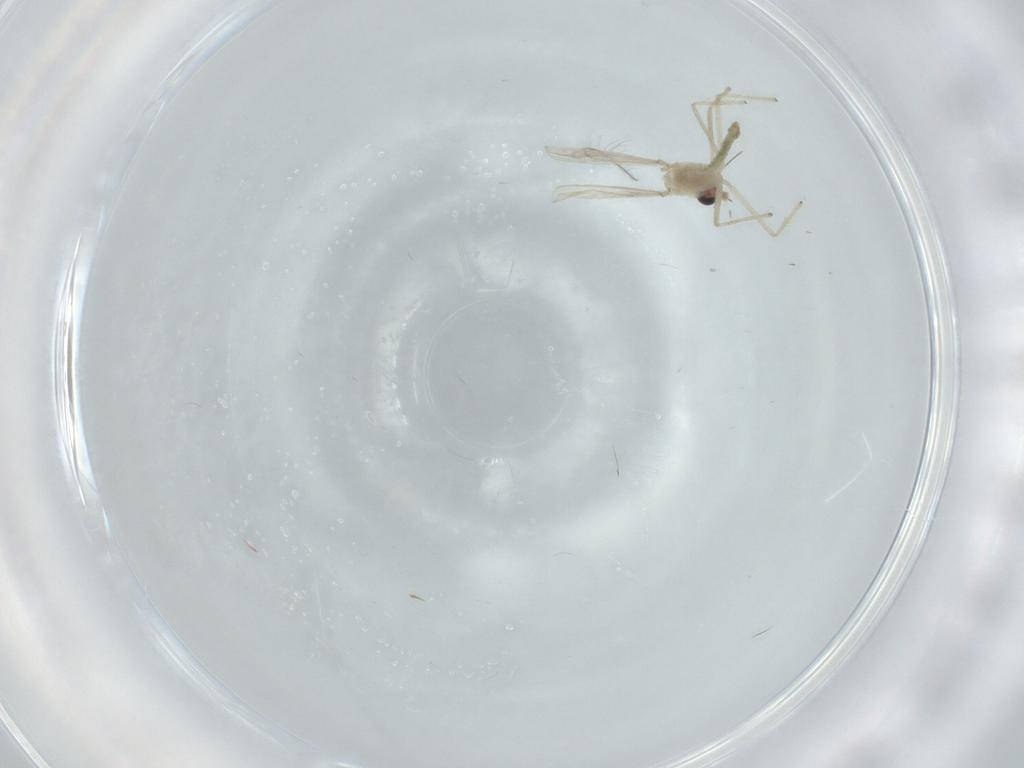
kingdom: Animalia
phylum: Arthropoda
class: Insecta
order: Diptera
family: Chironomidae
